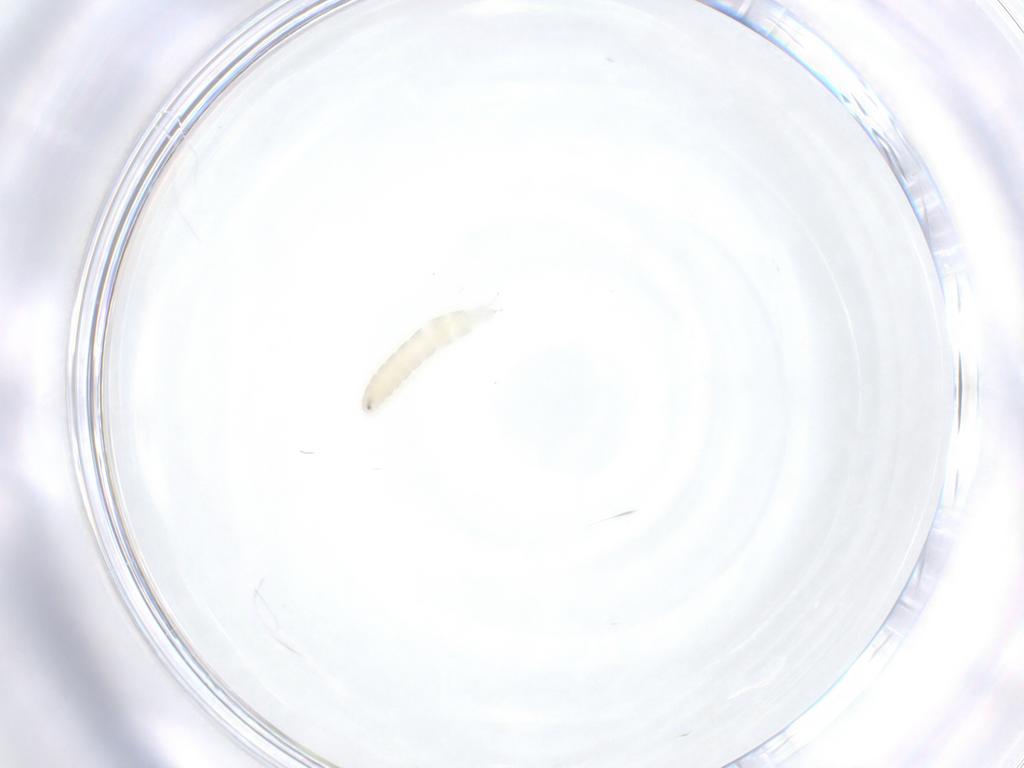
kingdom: Animalia
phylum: Arthropoda
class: Insecta
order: Diptera
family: Tachinidae
